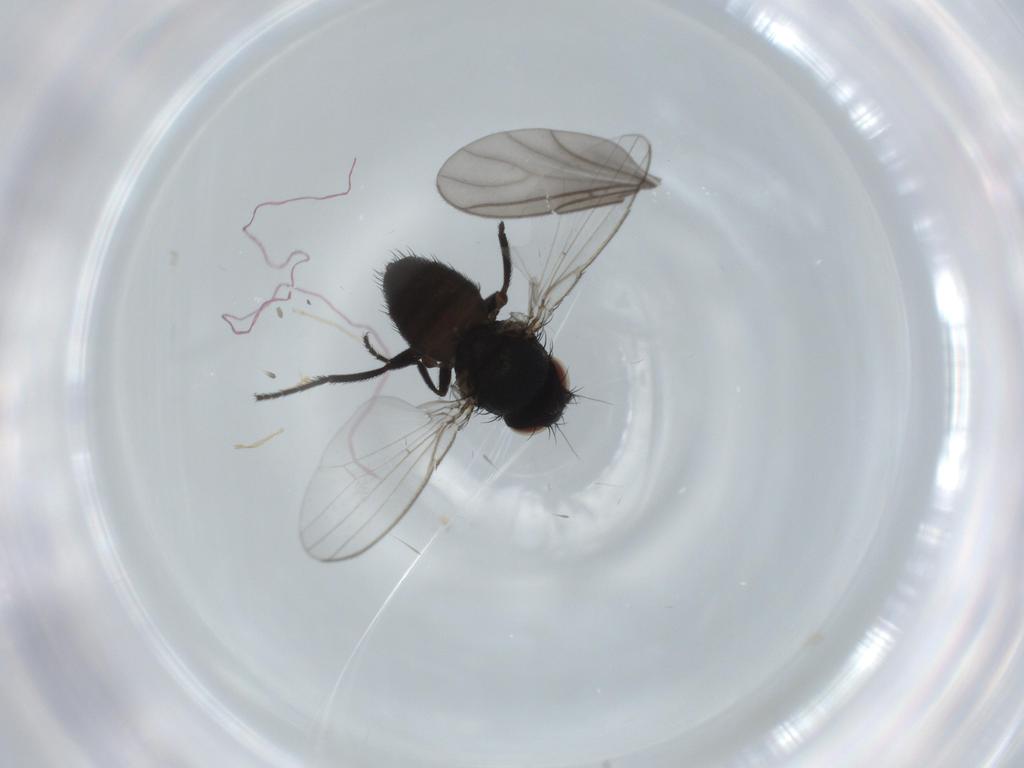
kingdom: Animalia
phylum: Arthropoda
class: Insecta
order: Diptera
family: Milichiidae
